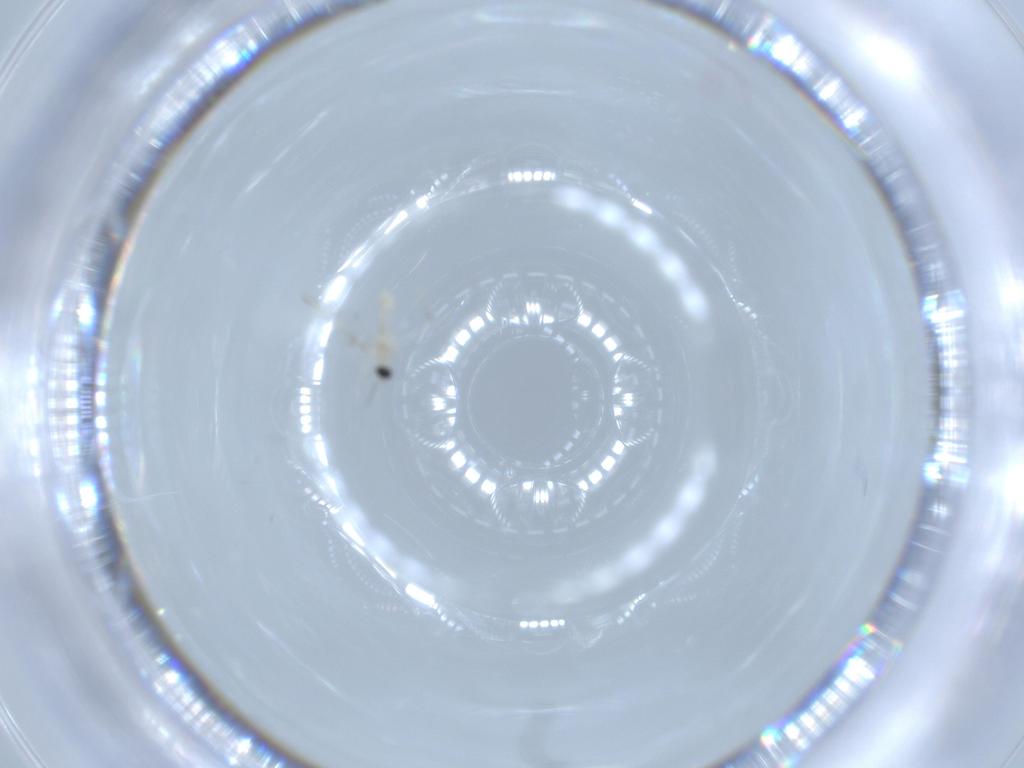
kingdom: Animalia
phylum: Arthropoda
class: Insecta
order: Diptera
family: Cecidomyiidae
